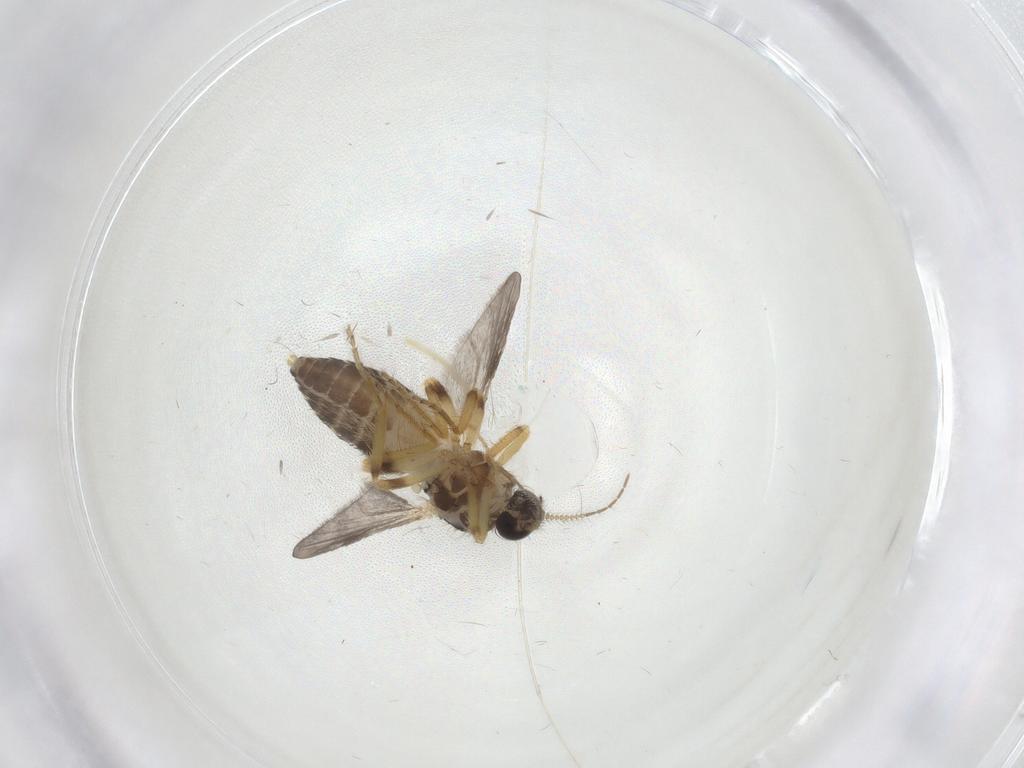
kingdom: Animalia
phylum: Arthropoda
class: Insecta
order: Diptera
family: Ceratopogonidae
